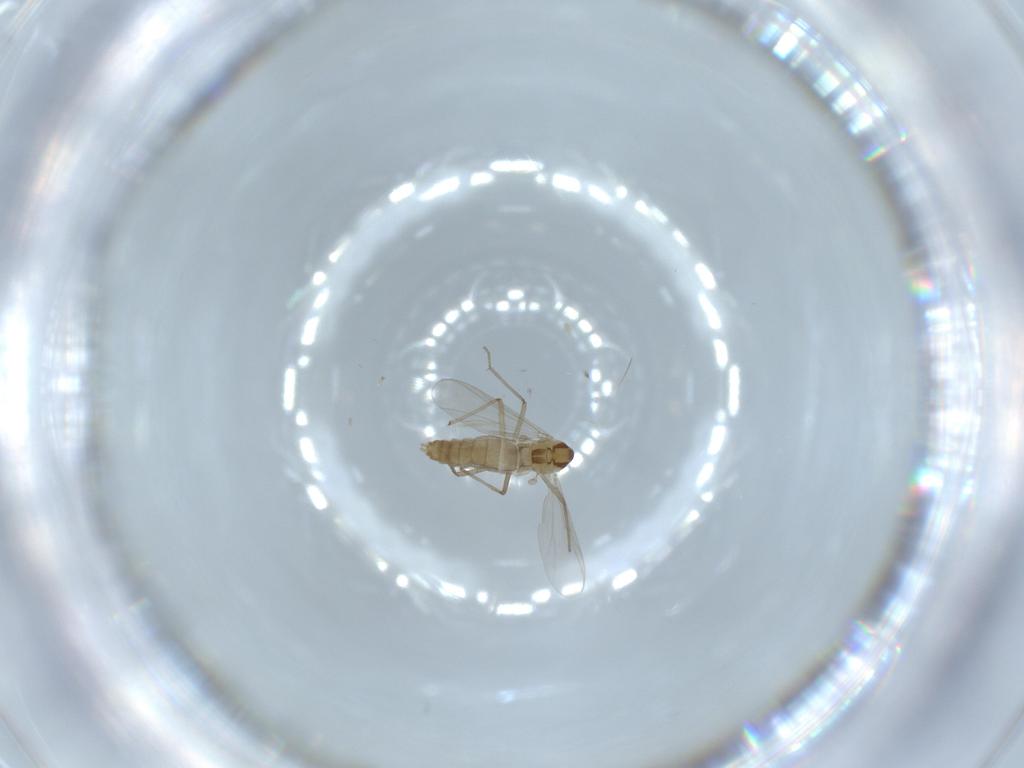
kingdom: Animalia
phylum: Arthropoda
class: Insecta
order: Diptera
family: Chironomidae
